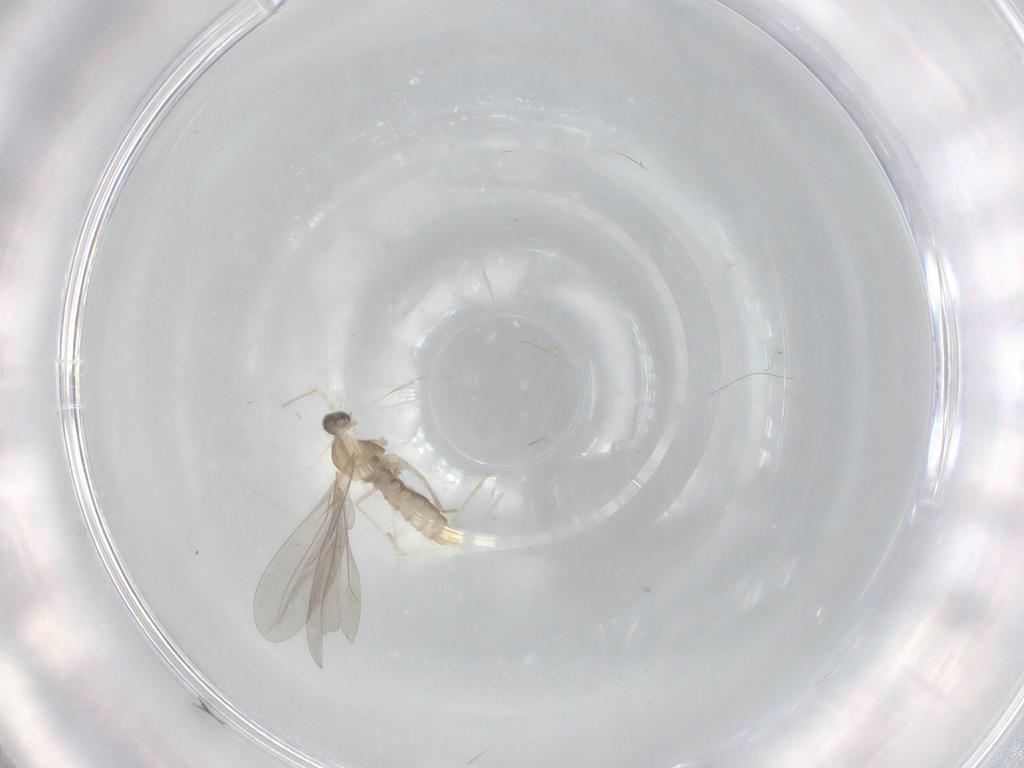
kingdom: Animalia
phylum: Arthropoda
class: Insecta
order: Diptera
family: Cecidomyiidae
